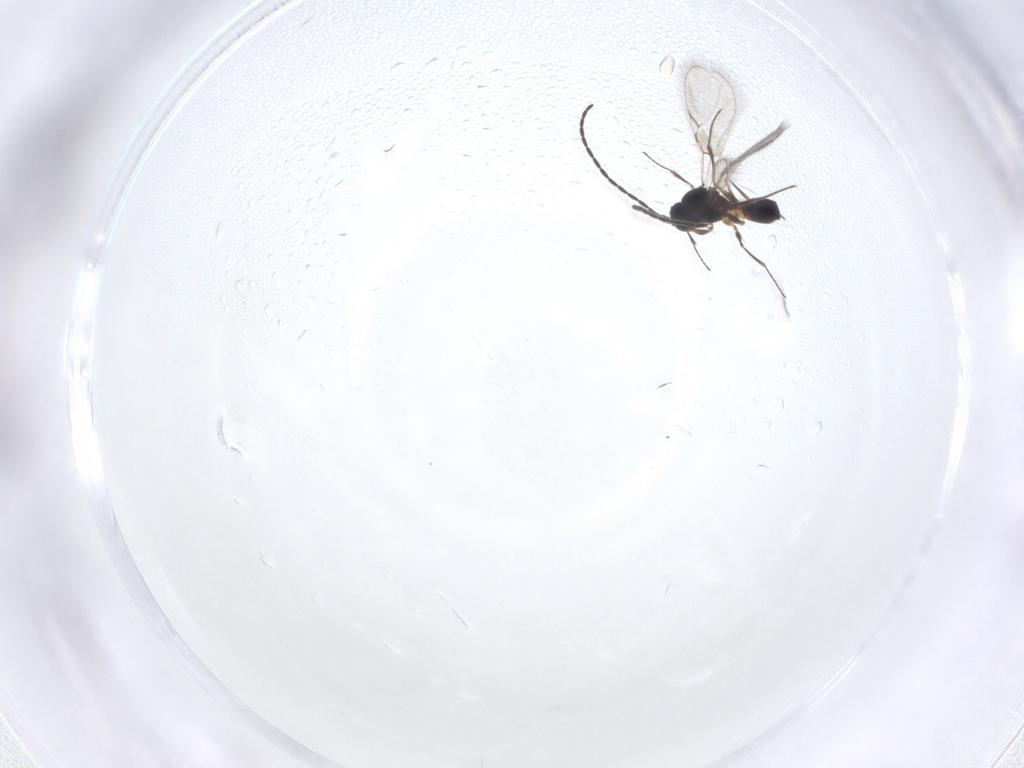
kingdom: Animalia
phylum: Arthropoda
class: Insecta
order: Hymenoptera
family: Figitidae
